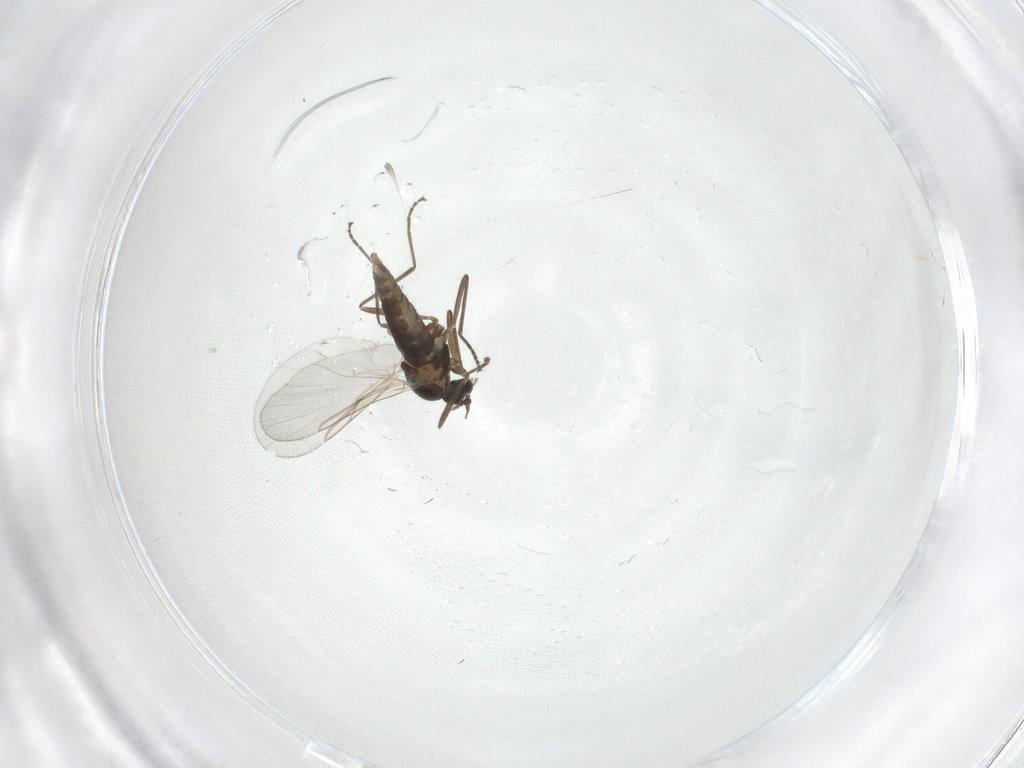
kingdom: Animalia
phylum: Arthropoda
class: Insecta
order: Diptera
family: Cecidomyiidae
